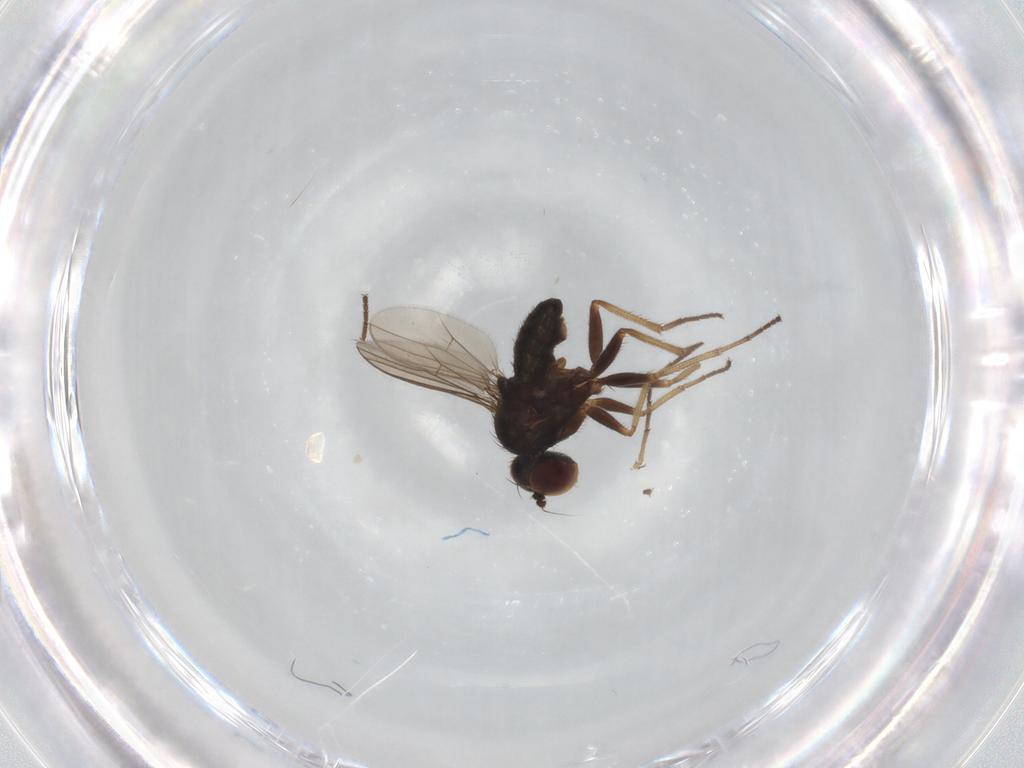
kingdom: Animalia
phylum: Arthropoda
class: Insecta
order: Diptera
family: Dolichopodidae
